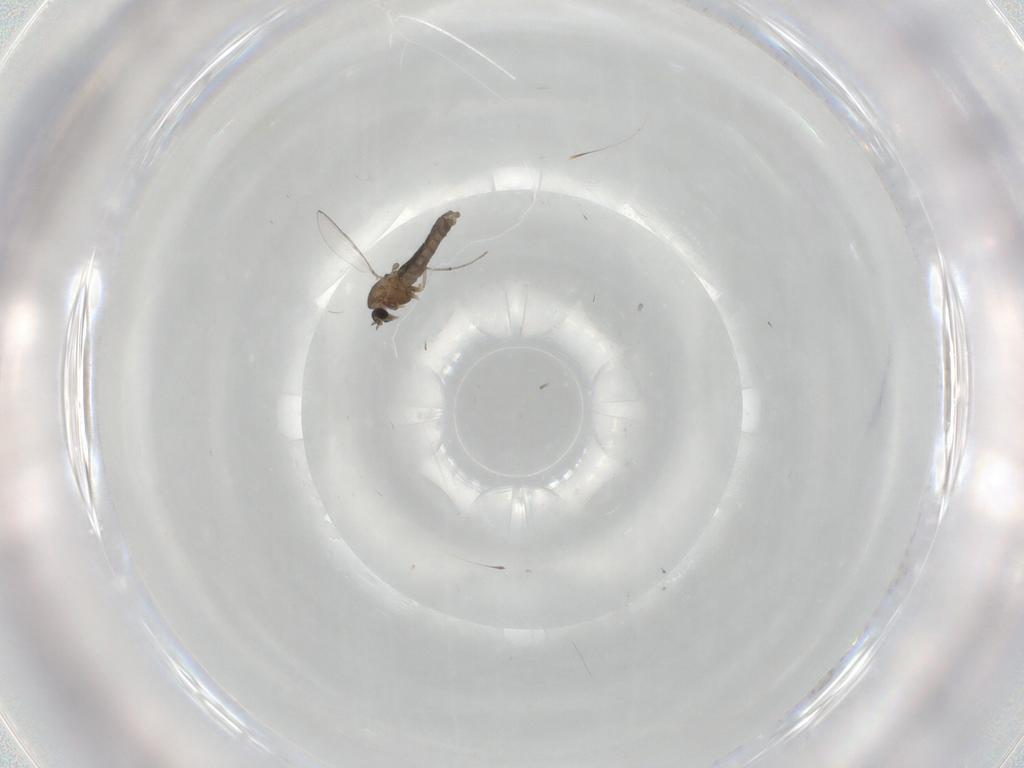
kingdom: Animalia
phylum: Arthropoda
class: Insecta
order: Diptera
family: Chironomidae
